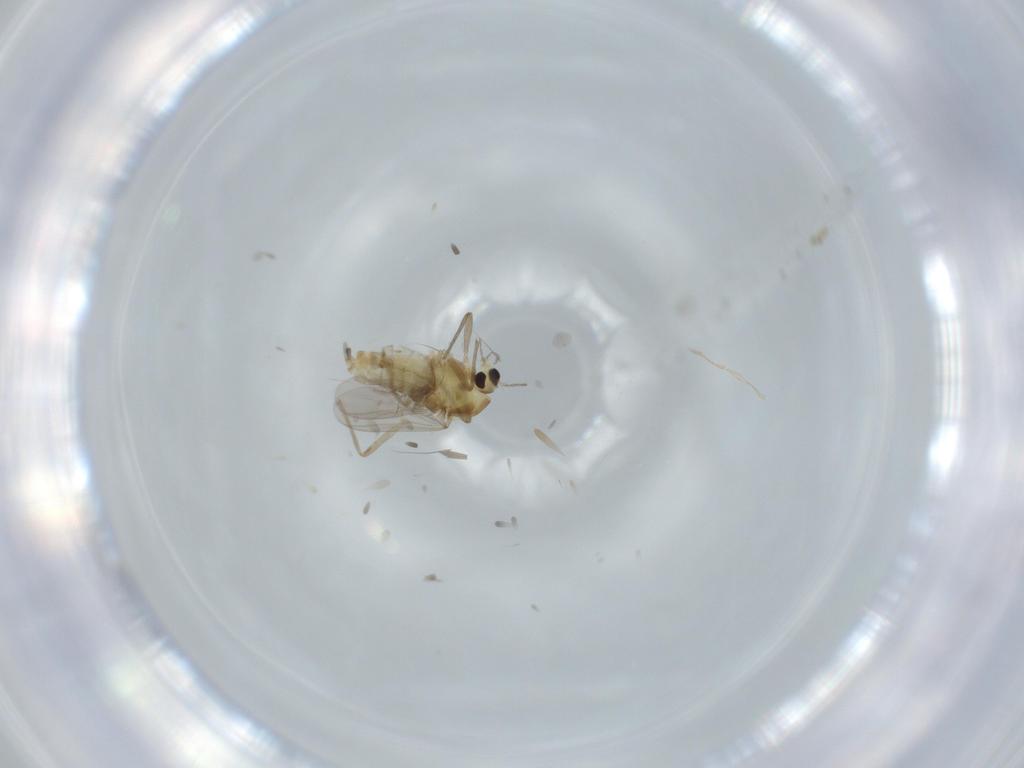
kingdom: Animalia
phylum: Arthropoda
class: Insecta
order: Diptera
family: Chironomidae
